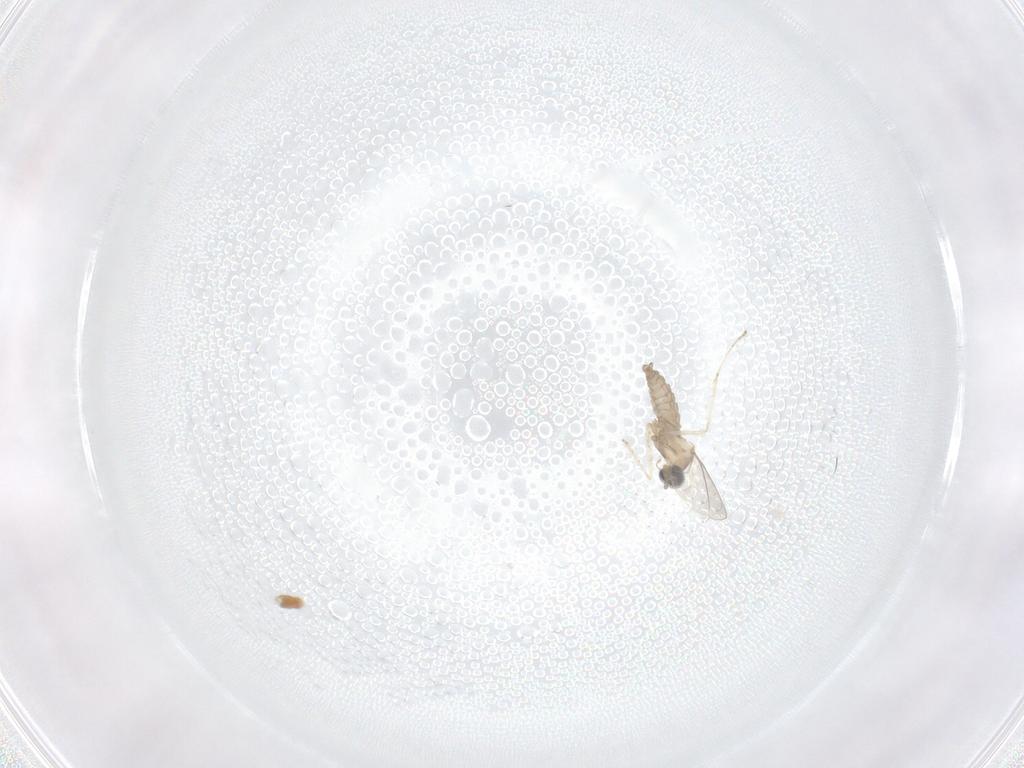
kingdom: Animalia
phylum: Arthropoda
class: Insecta
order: Diptera
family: Cecidomyiidae
